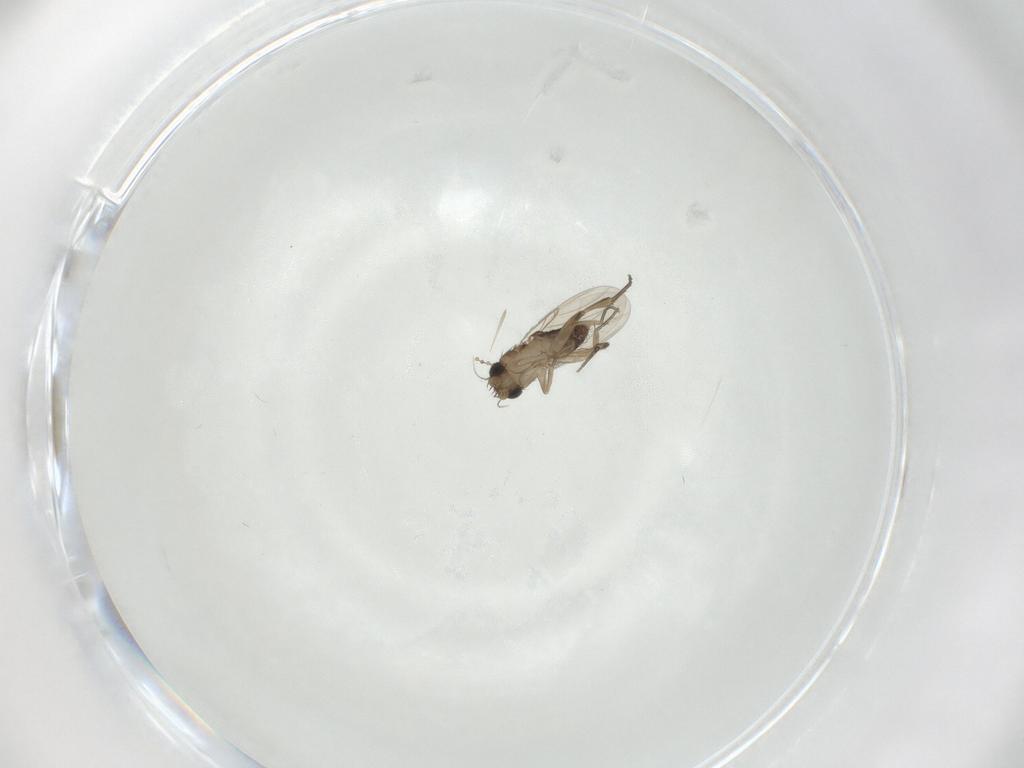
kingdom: Animalia
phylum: Arthropoda
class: Insecta
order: Diptera
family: Phoridae
